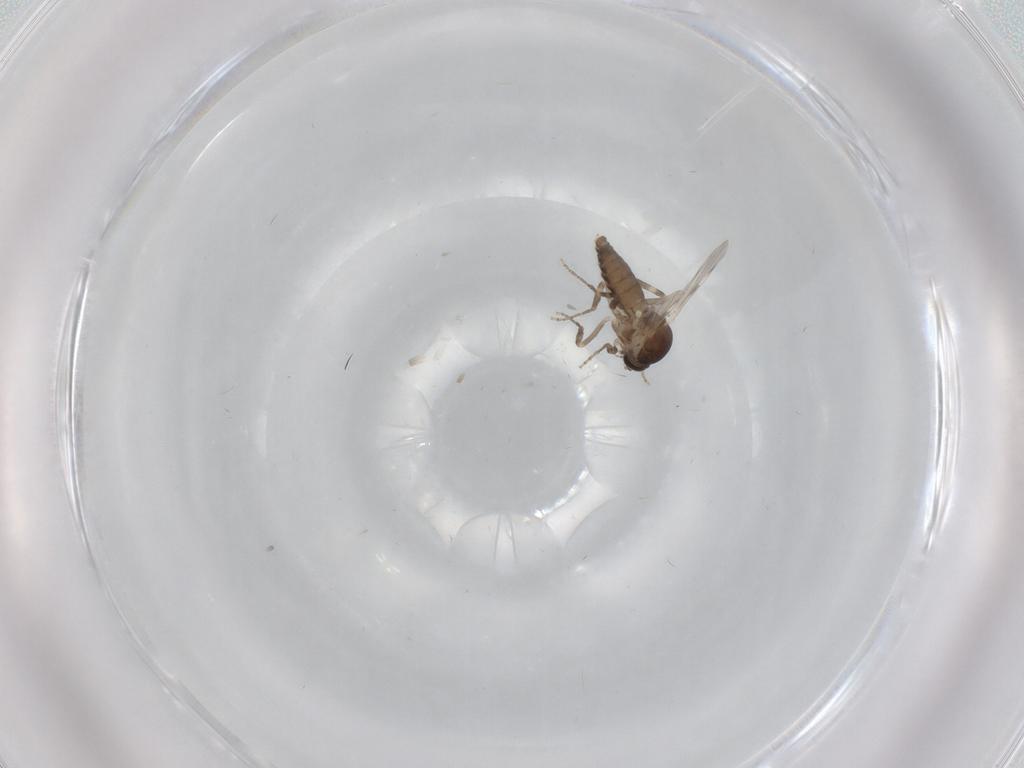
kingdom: Animalia
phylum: Arthropoda
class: Insecta
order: Diptera
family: Ceratopogonidae
